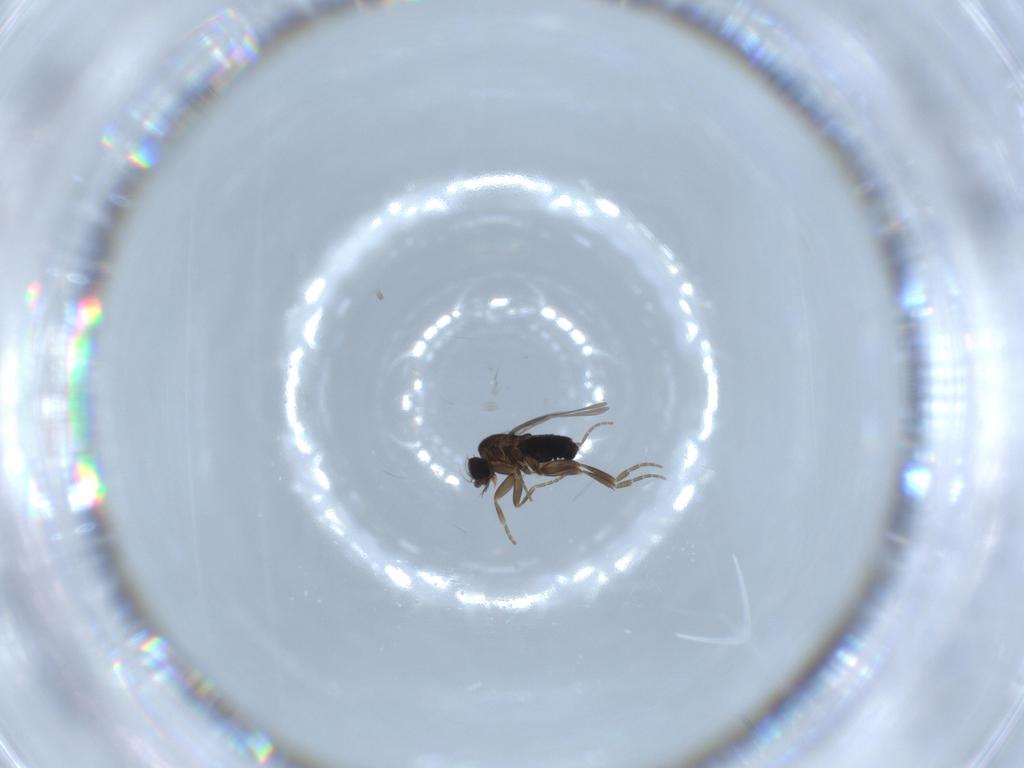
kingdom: Animalia
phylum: Arthropoda
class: Insecta
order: Diptera
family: Phoridae
